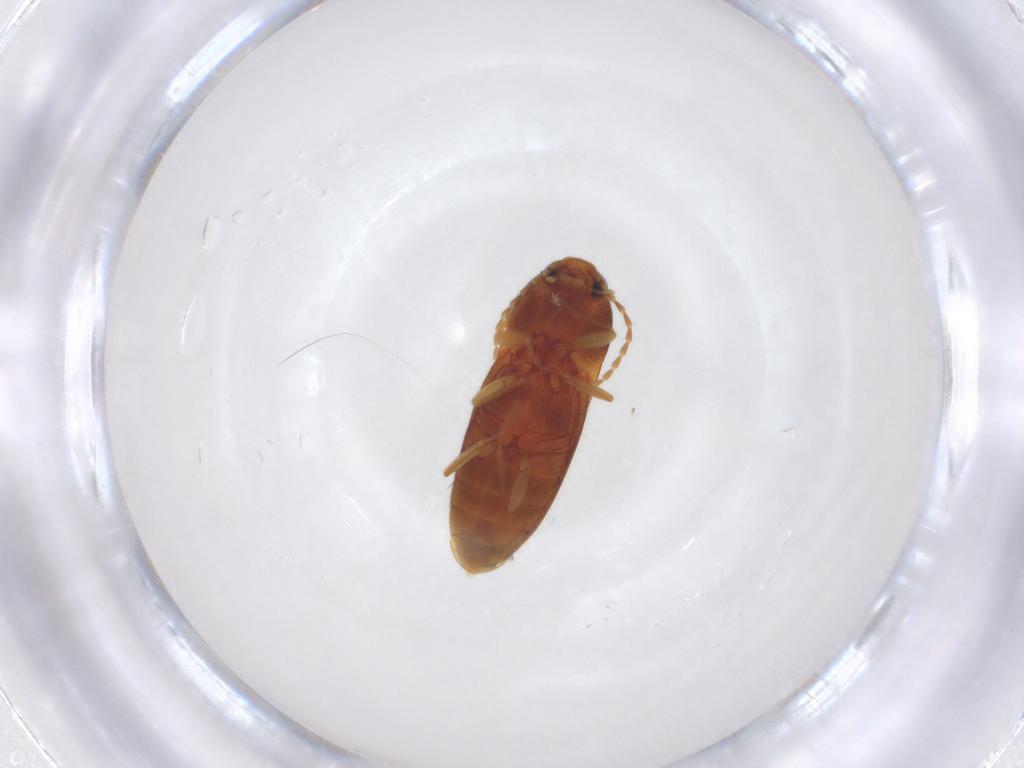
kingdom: Animalia
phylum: Arthropoda
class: Insecta
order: Coleoptera
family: Elateridae
